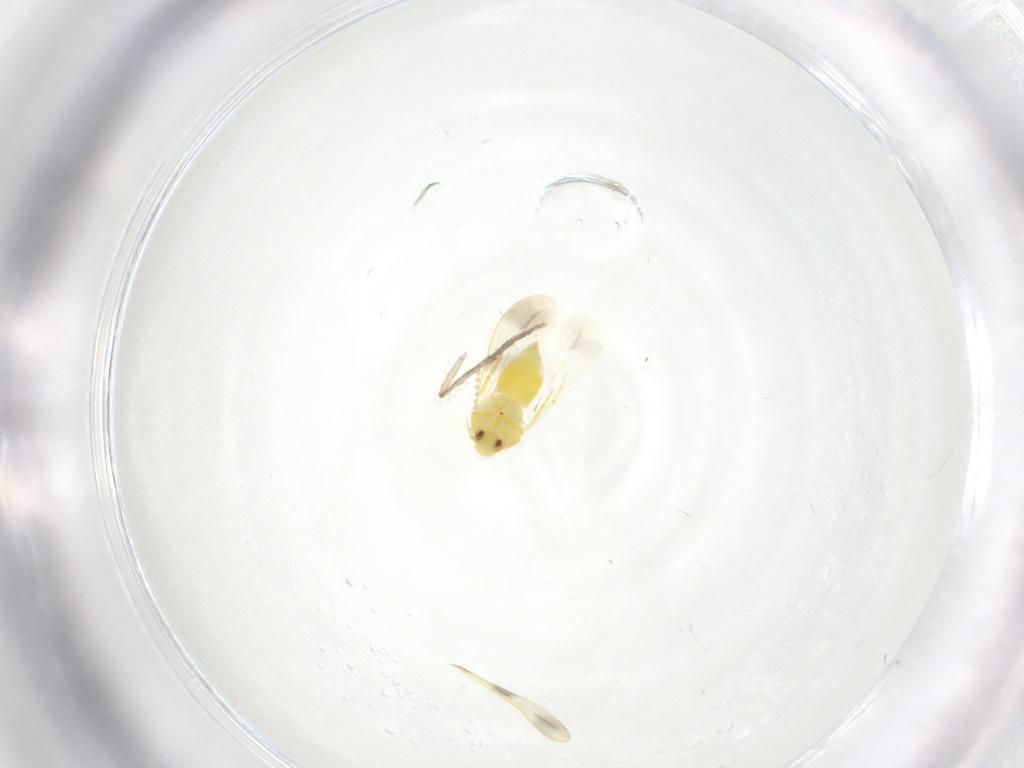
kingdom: Animalia
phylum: Arthropoda
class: Insecta
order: Hemiptera
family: Aleyrodidae
